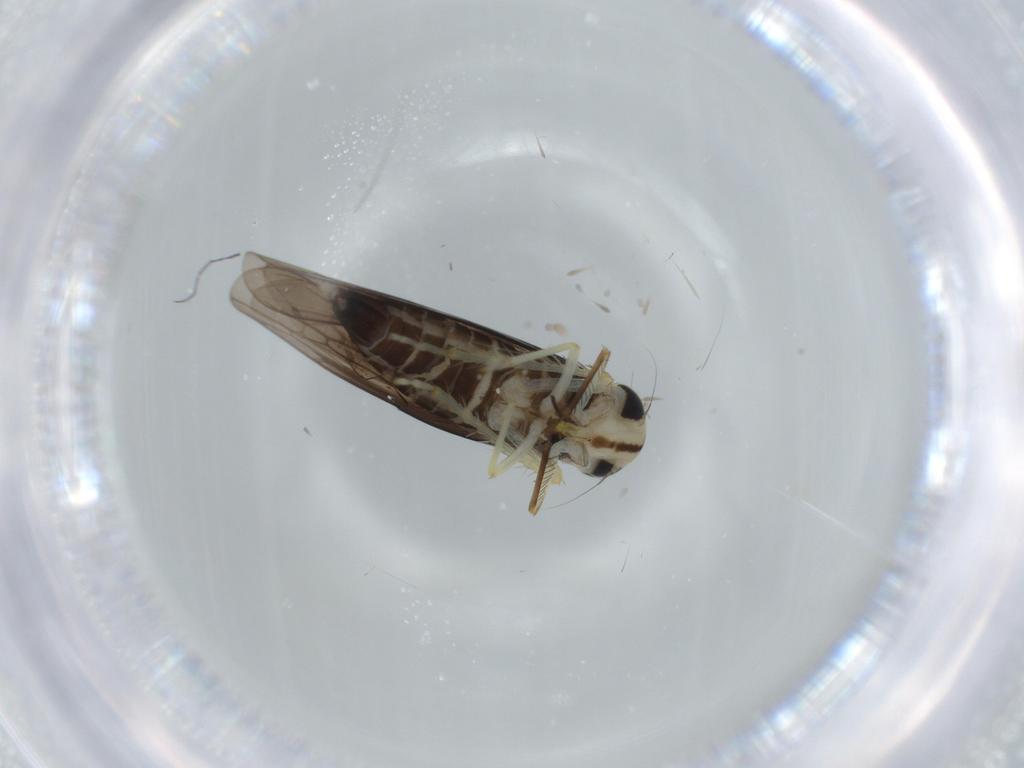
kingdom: Animalia
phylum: Arthropoda
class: Insecta
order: Hemiptera
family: Cicadellidae
